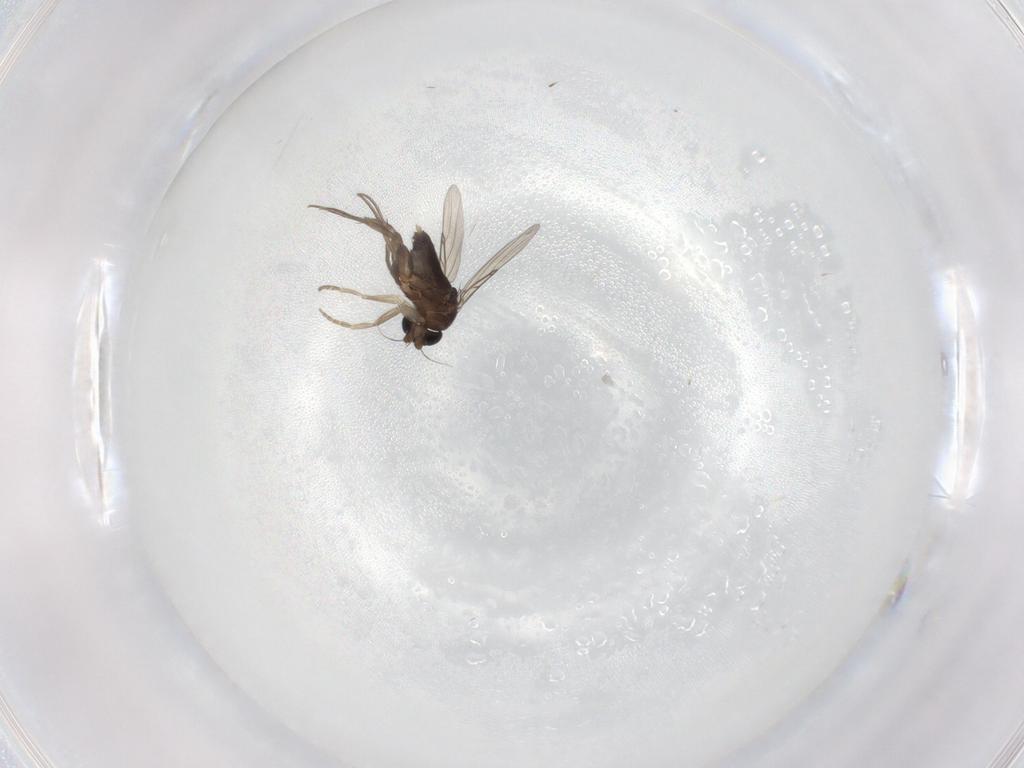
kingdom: Animalia
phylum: Arthropoda
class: Insecta
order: Diptera
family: Phoridae
